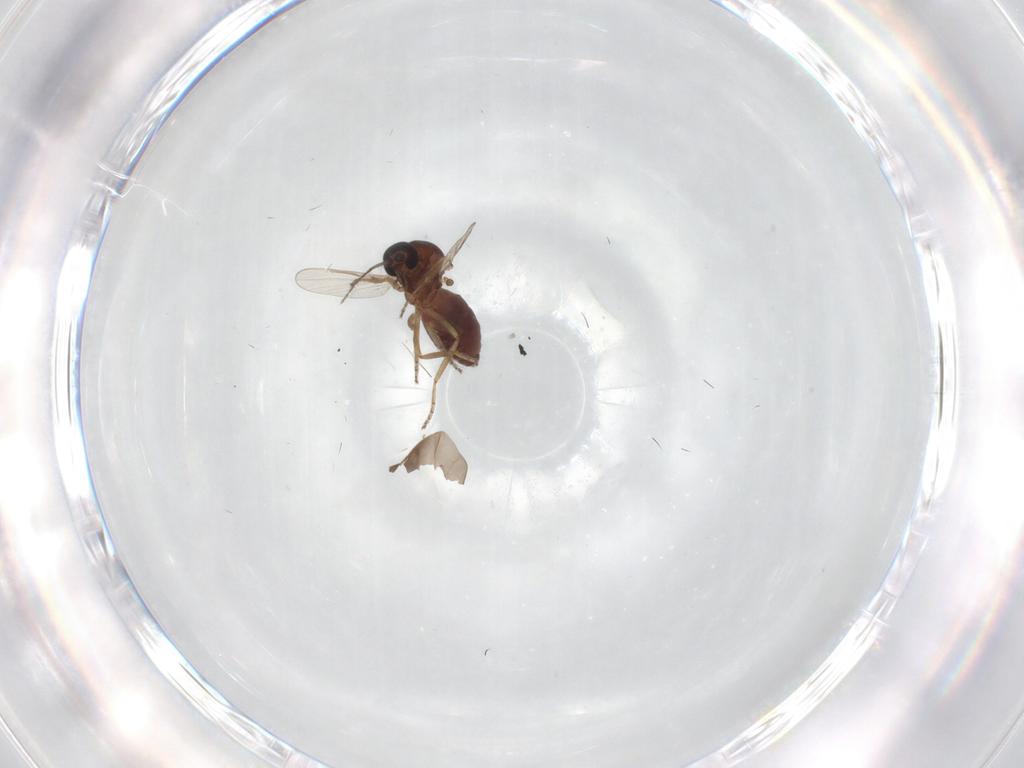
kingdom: Animalia
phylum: Arthropoda
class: Insecta
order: Diptera
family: Ceratopogonidae
